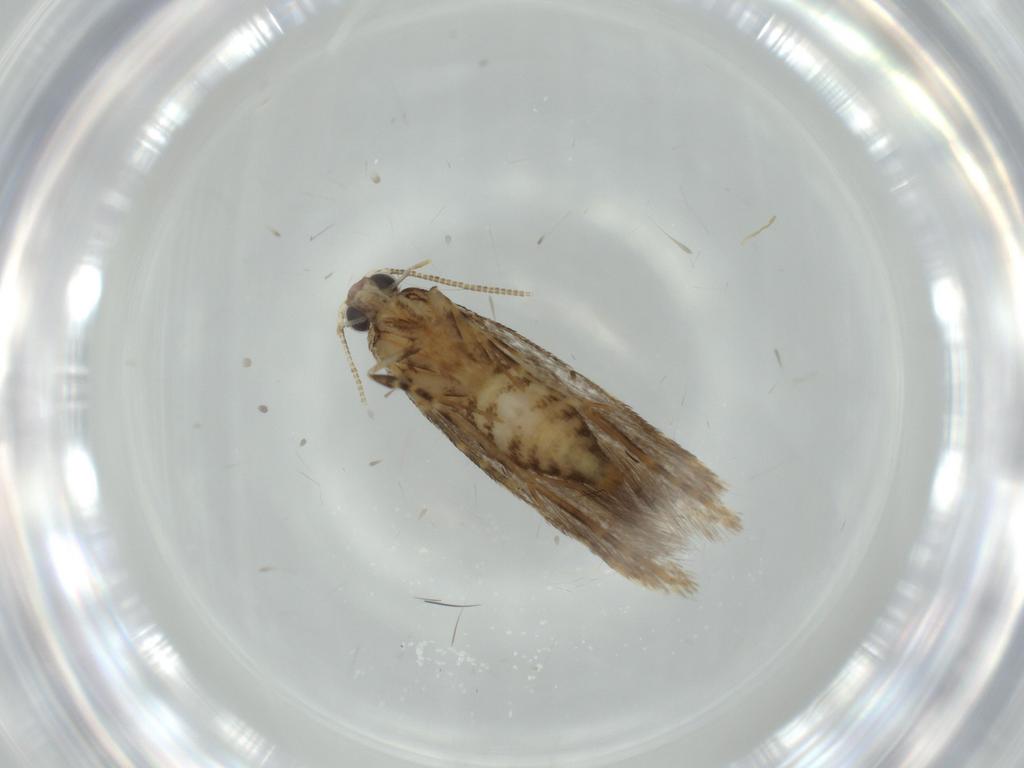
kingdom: Animalia
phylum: Arthropoda
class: Insecta
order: Lepidoptera
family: Tineidae
